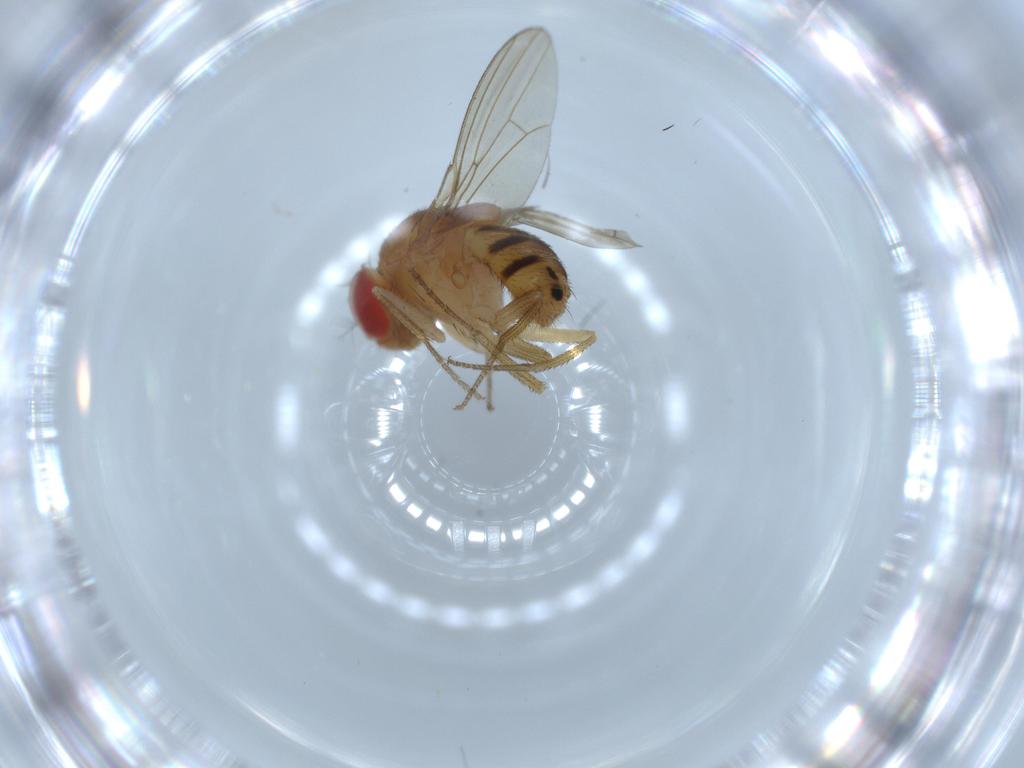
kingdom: Animalia
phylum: Arthropoda
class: Insecta
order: Diptera
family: Drosophilidae
